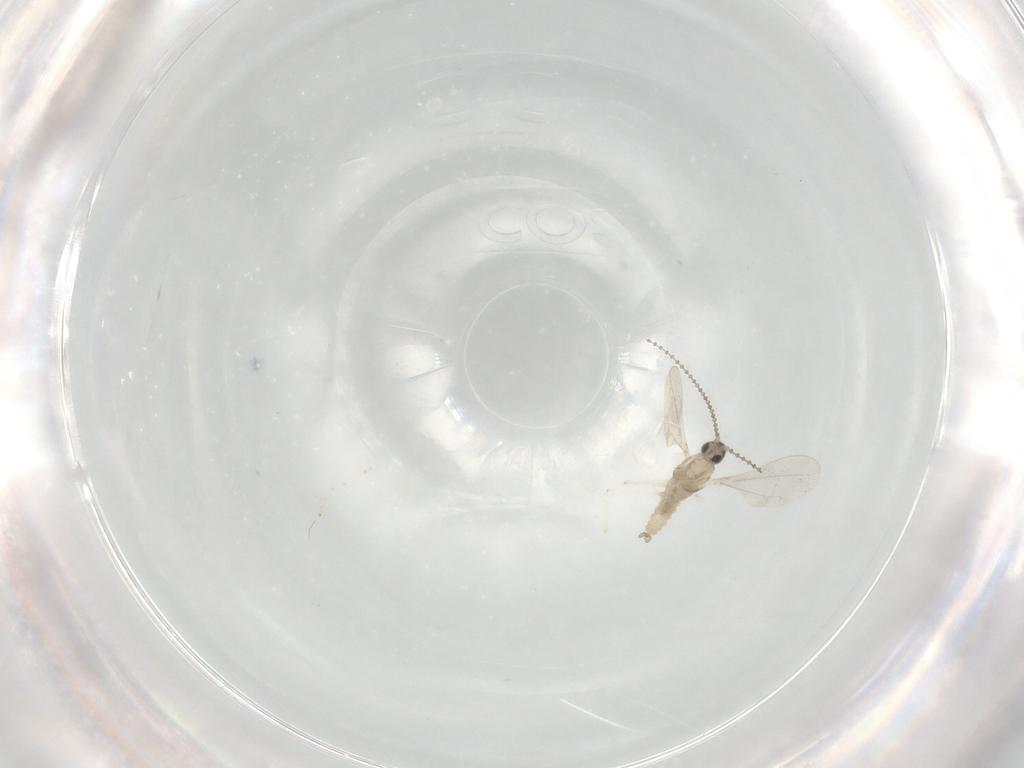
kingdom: Animalia
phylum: Arthropoda
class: Insecta
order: Diptera
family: Cecidomyiidae
